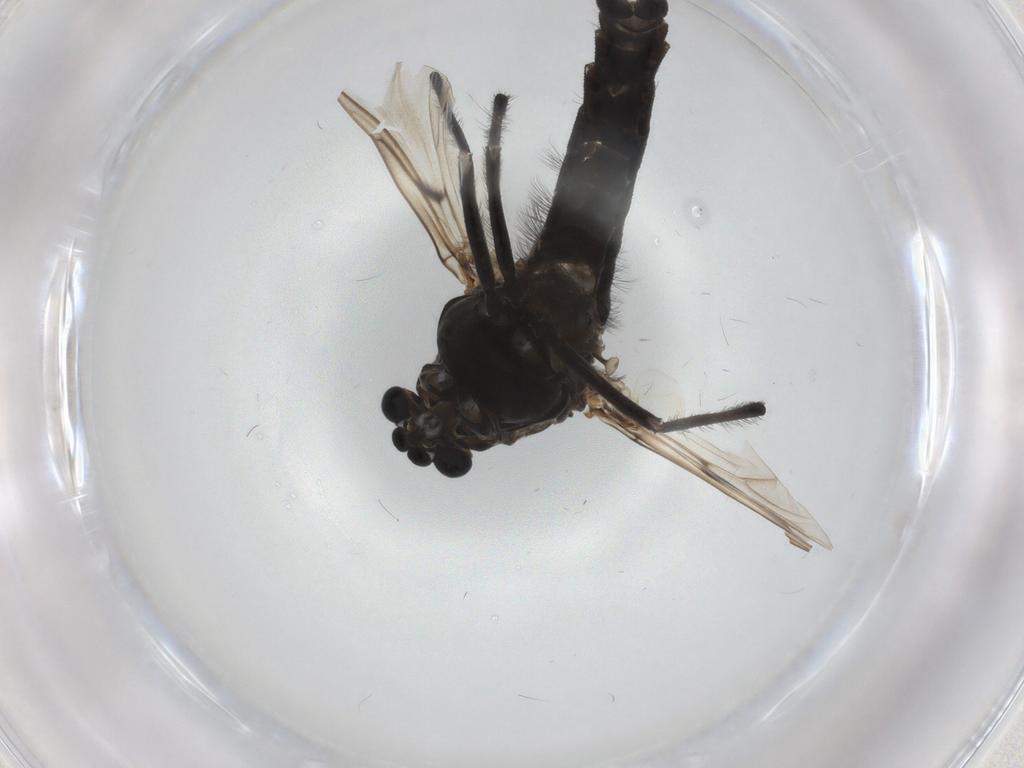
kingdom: Animalia
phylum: Arthropoda
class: Insecta
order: Diptera
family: Chironomidae
